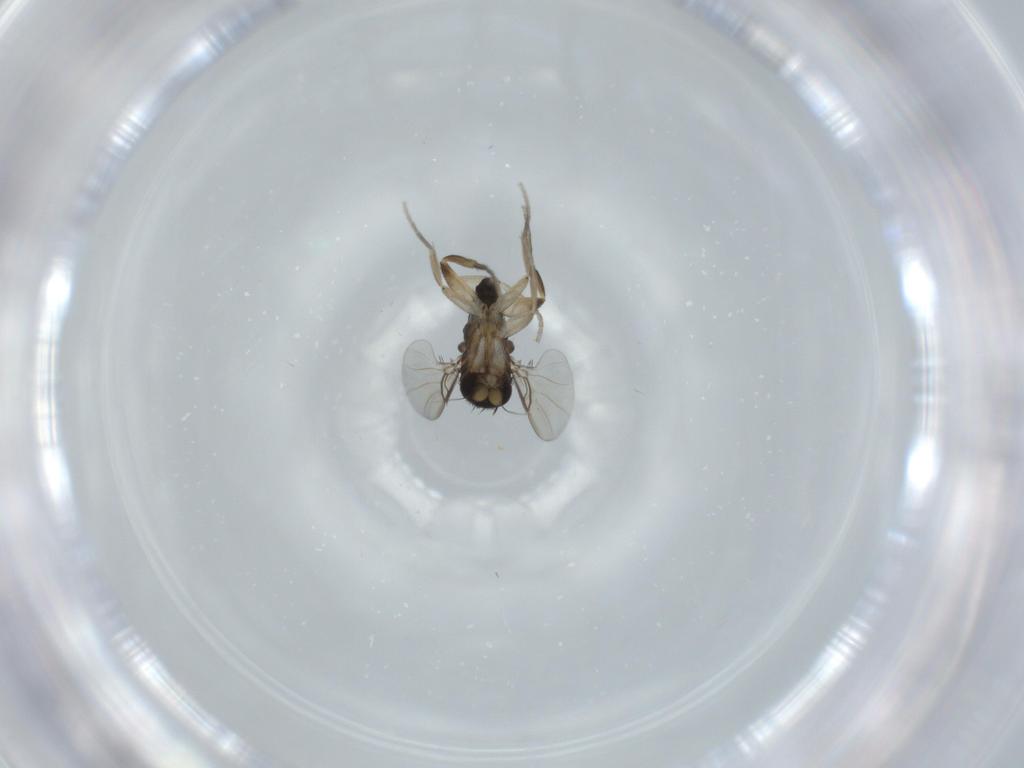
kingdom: Animalia
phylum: Arthropoda
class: Insecta
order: Diptera
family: Phoridae
